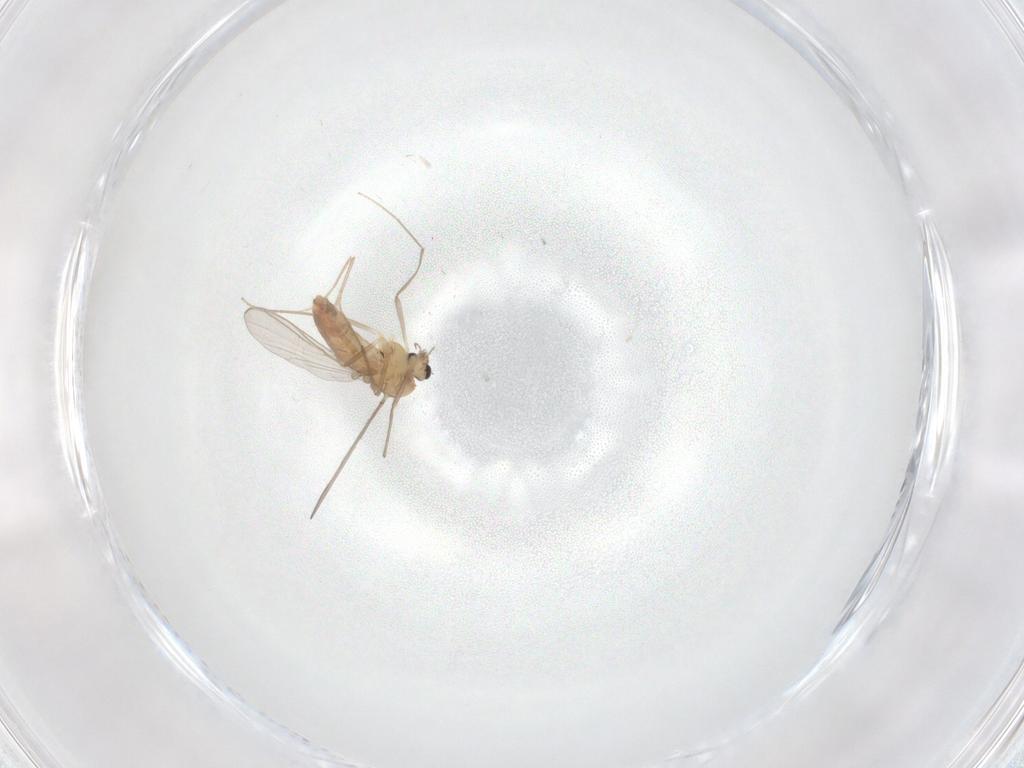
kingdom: Animalia
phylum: Arthropoda
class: Insecta
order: Diptera
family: Chironomidae
